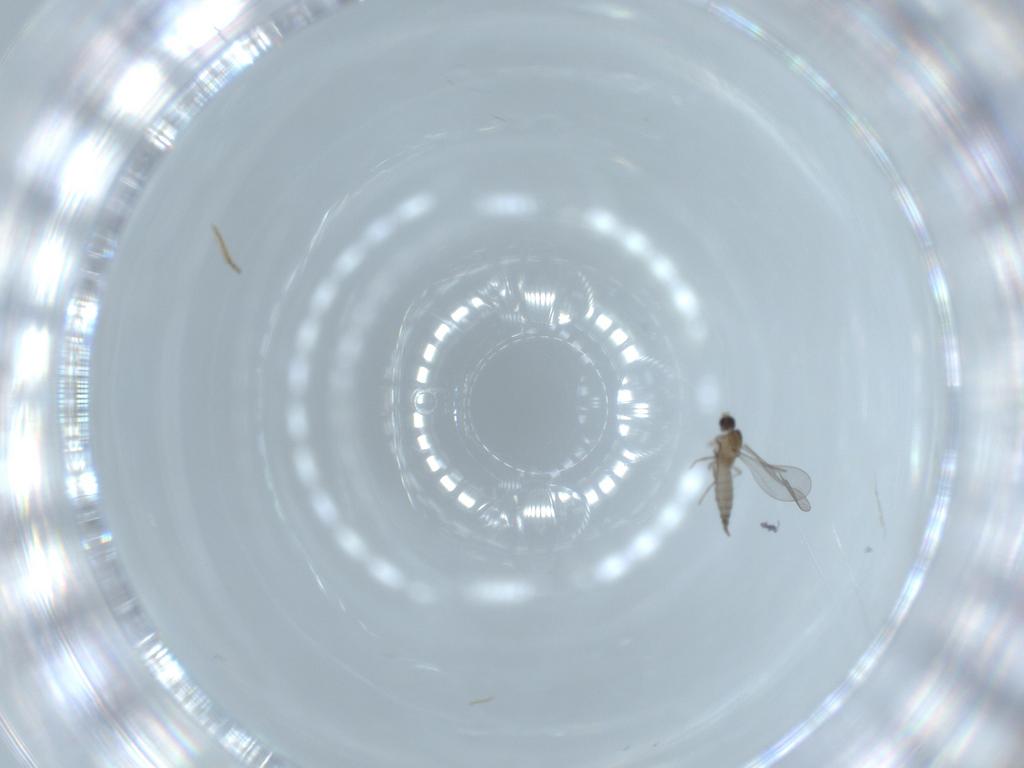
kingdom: Animalia
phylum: Arthropoda
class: Insecta
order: Diptera
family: Cecidomyiidae
